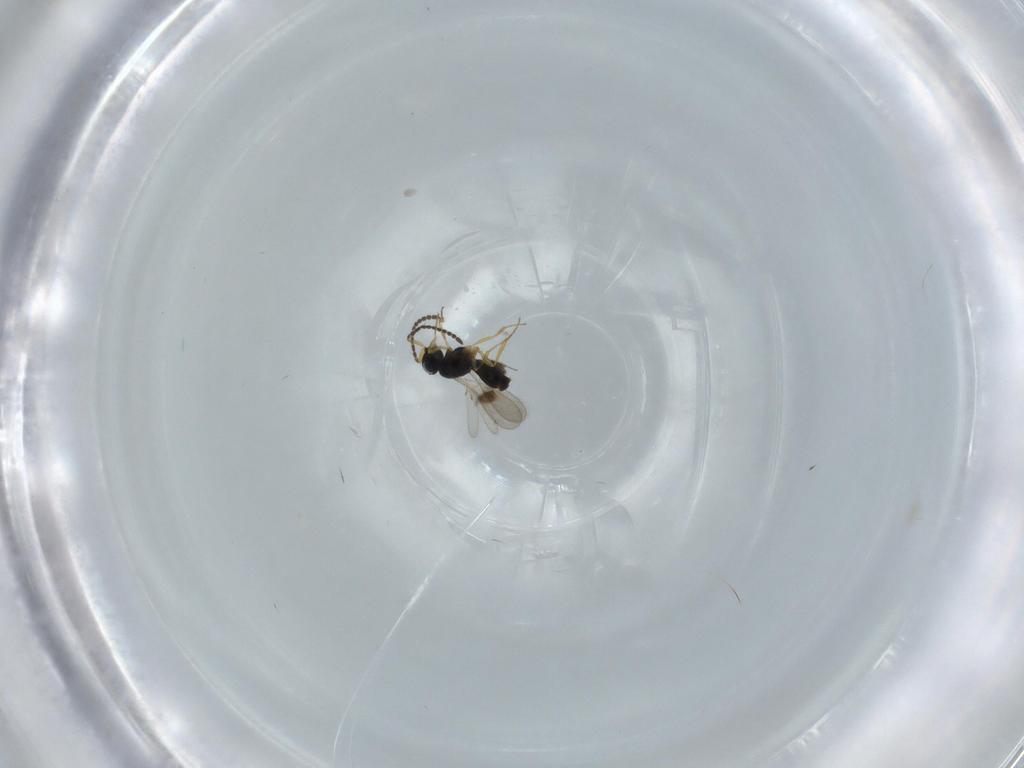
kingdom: Animalia
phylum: Arthropoda
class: Insecta
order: Hymenoptera
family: Scelionidae
